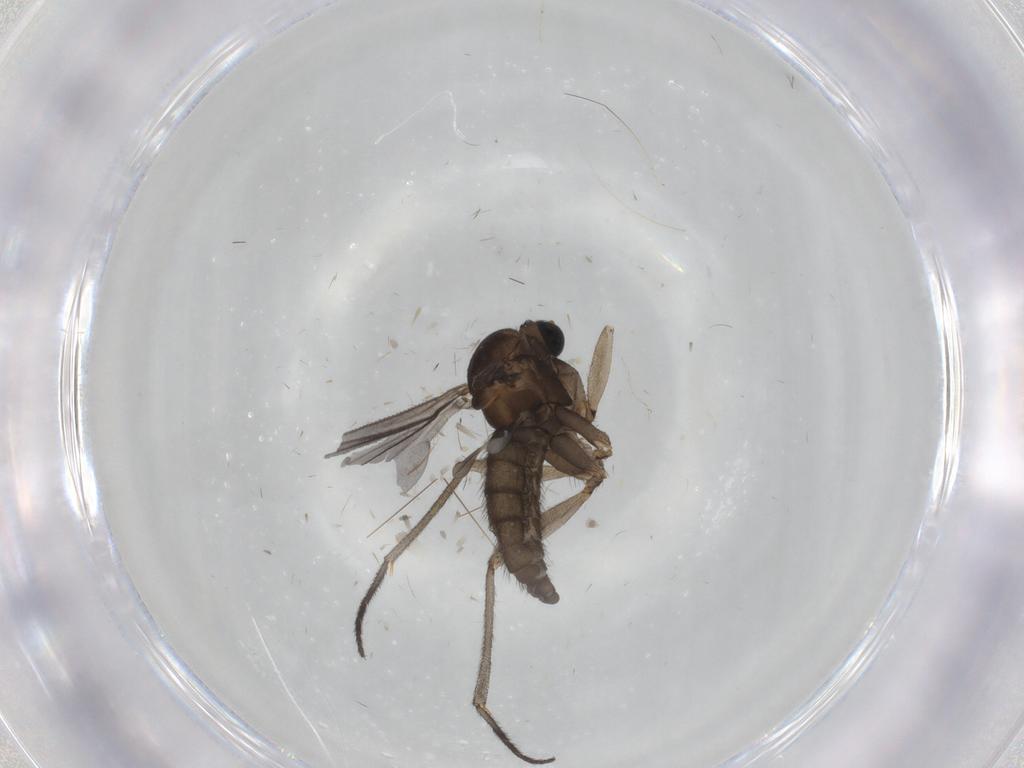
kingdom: Animalia
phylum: Arthropoda
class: Insecta
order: Diptera
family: Sciaridae
